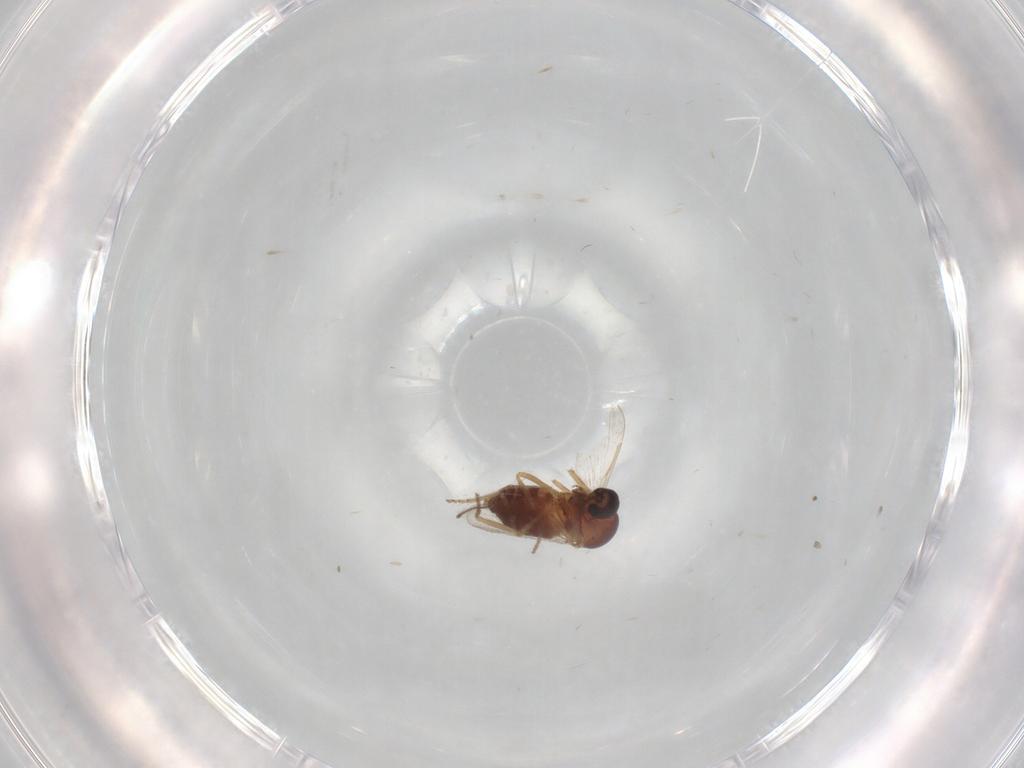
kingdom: Animalia
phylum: Arthropoda
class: Insecta
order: Diptera
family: Ceratopogonidae
